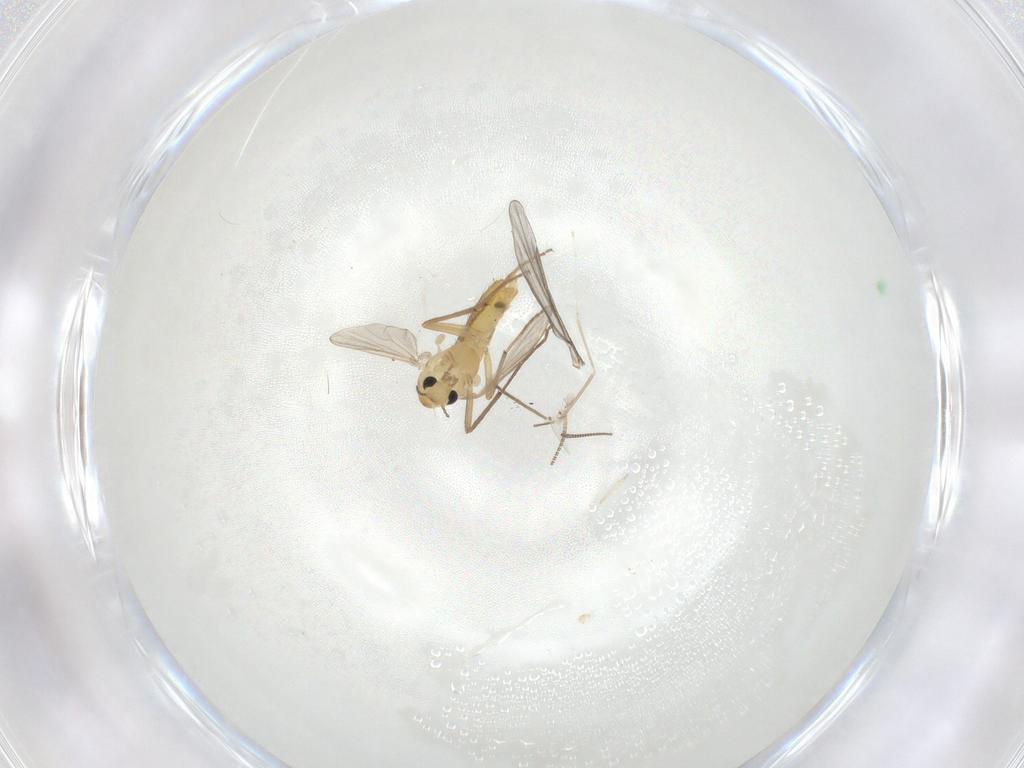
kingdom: Animalia
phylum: Arthropoda
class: Insecta
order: Diptera
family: Chironomidae
